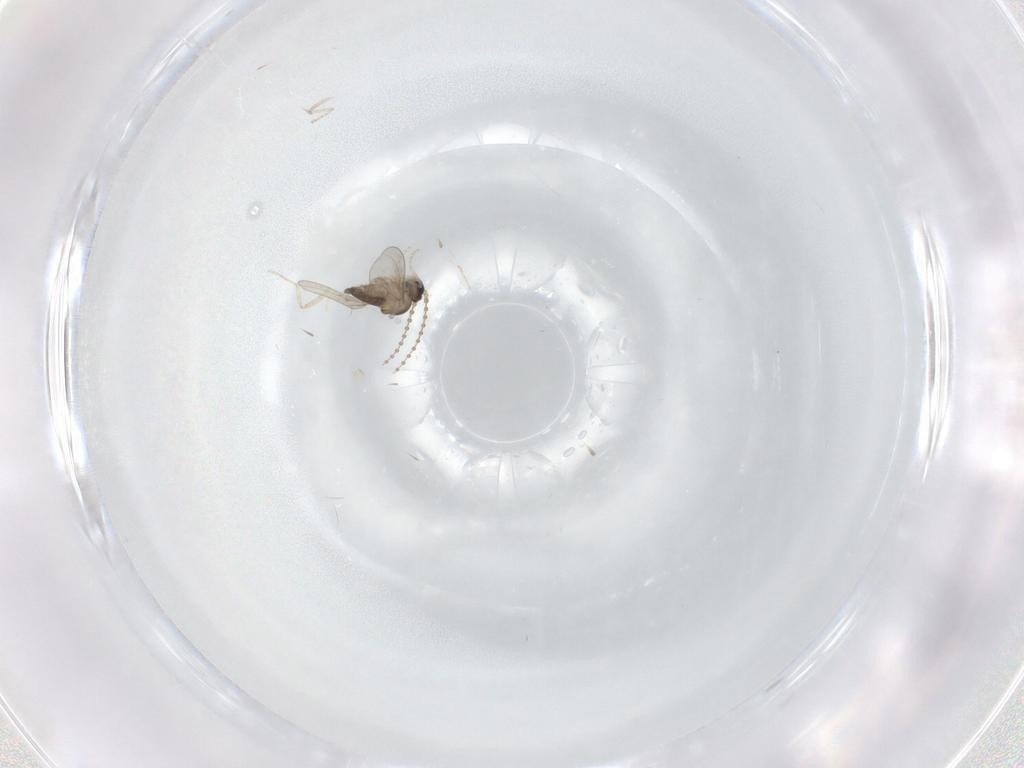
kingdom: Animalia
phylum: Arthropoda
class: Insecta
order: Diptera
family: Cecidomyiidae
